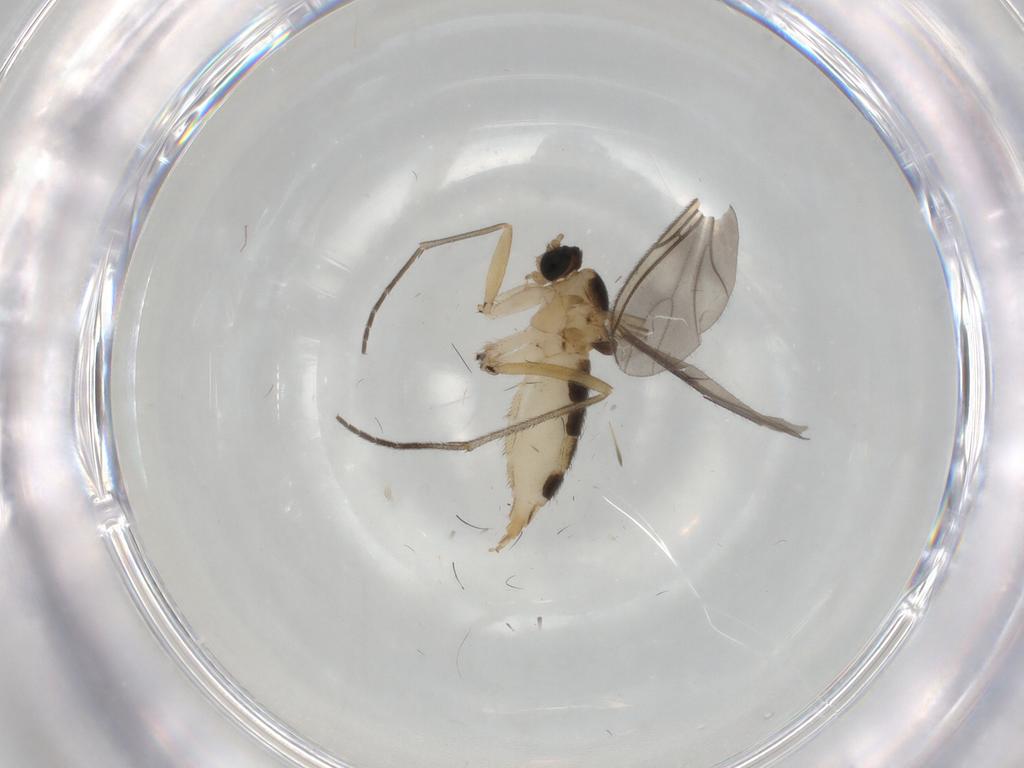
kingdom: Animalia
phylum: Arthropoda
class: Insecta
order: Diptera
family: Sciaridae
